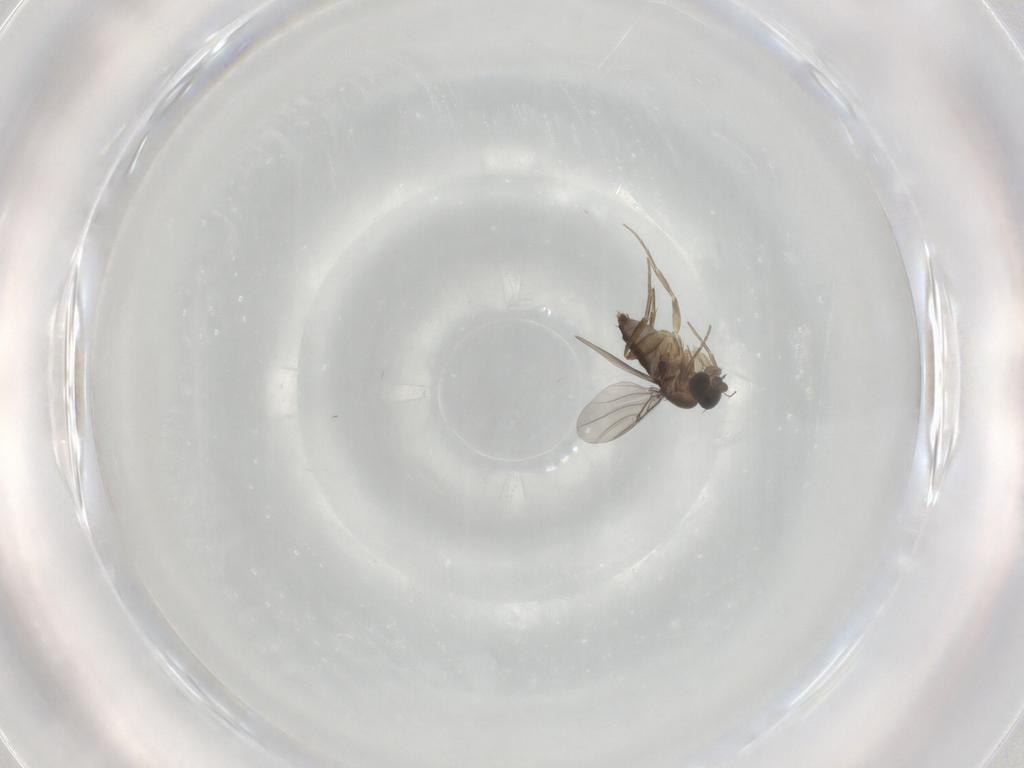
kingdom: Animalia
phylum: Arthropoda
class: Insecta
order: Diptera
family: Phoridae
